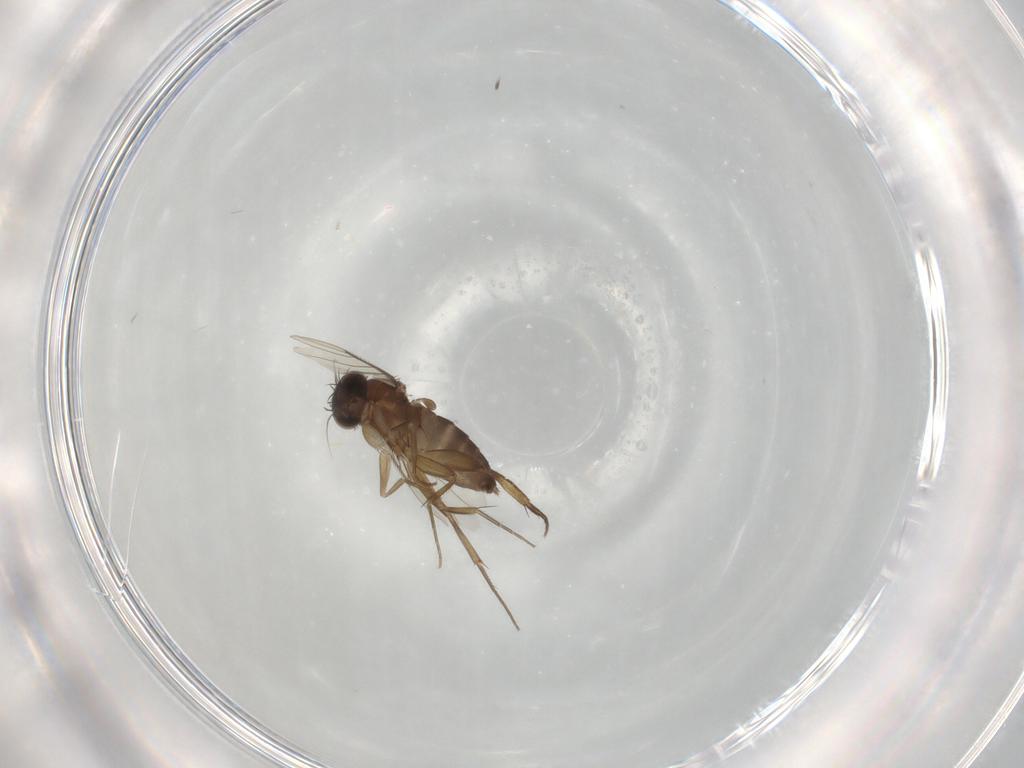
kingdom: Animalia
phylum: Arthropoda
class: Insecta
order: Diptera
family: Phoridae
